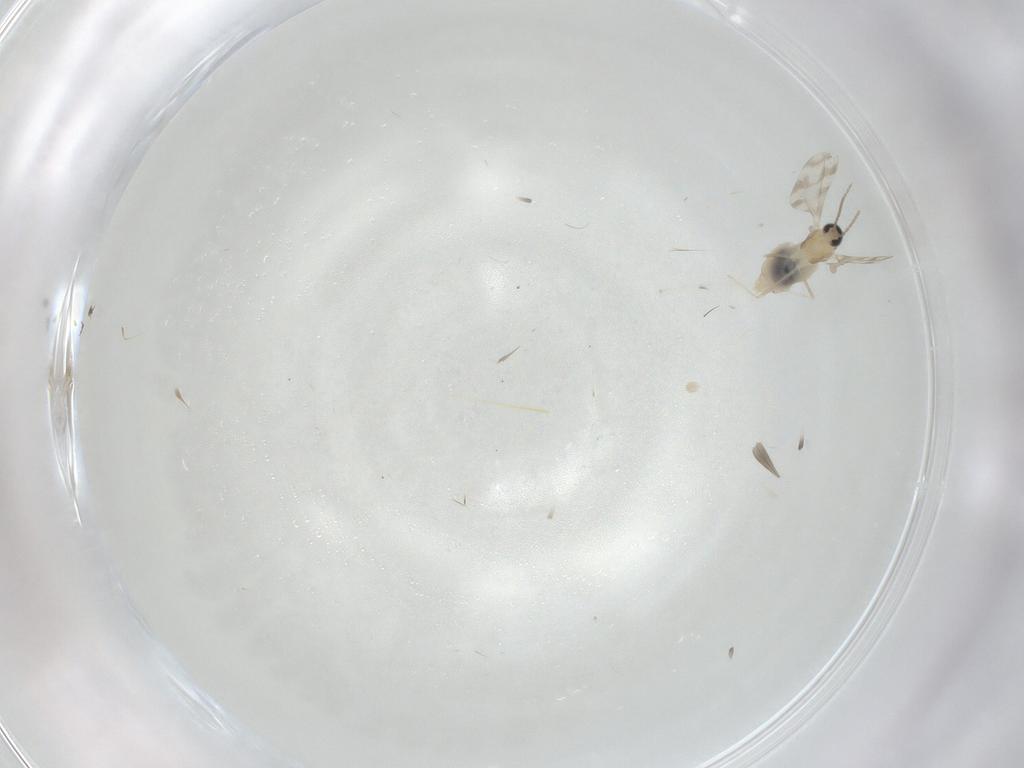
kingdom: Animalia
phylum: Arthropoda
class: Insecta
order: Diptera
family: Cecidomyiidae
